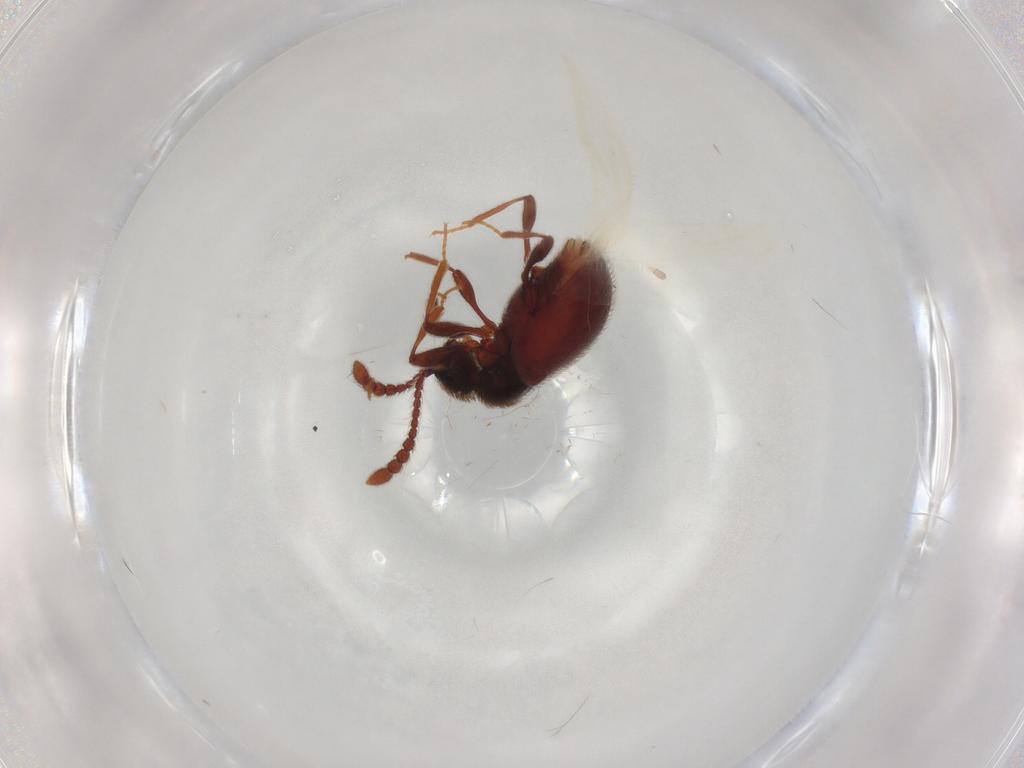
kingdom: Animalia
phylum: Arthropoda
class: Insecta
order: Coleoptera
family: Staphylinidae
